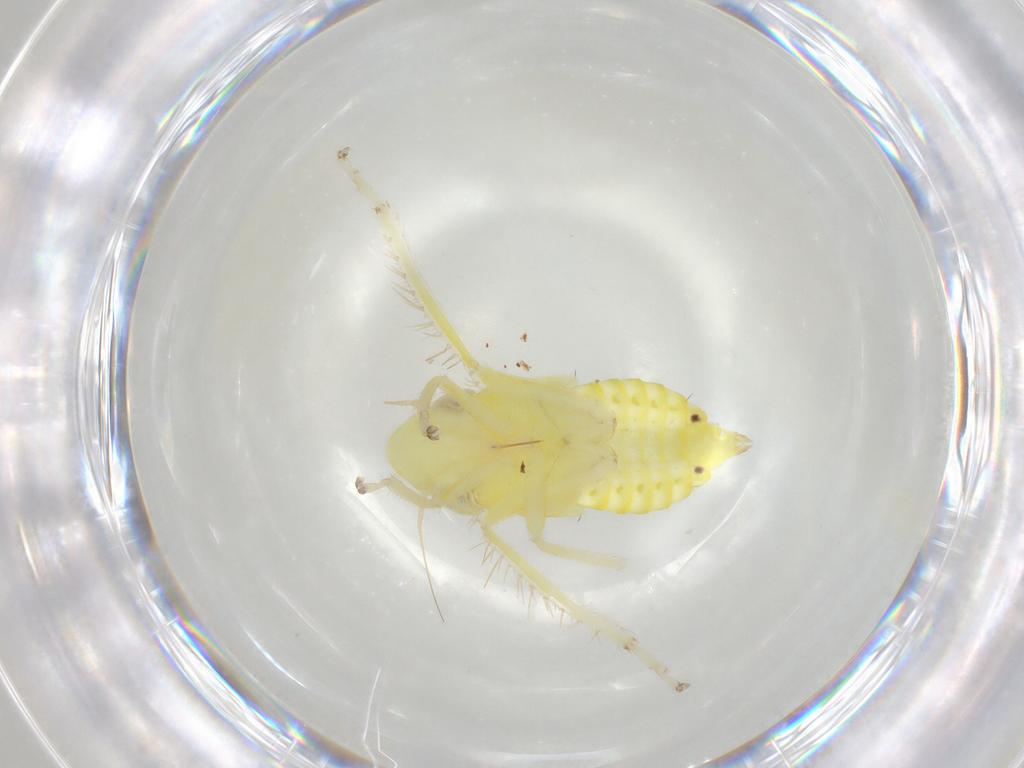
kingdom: Animalia
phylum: Arthropoda
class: Insecta
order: Hemiptera
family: Cicadellidae
